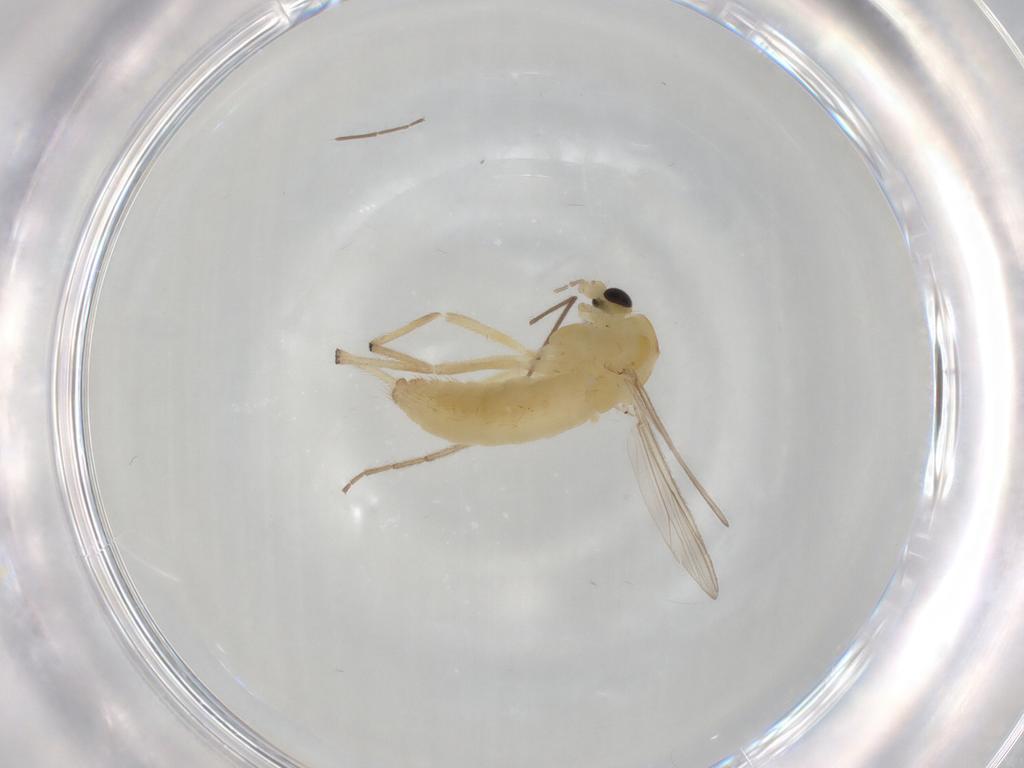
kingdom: Animalia
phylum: Arthropoda
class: Insecta
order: Diptera
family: Chironomidae
